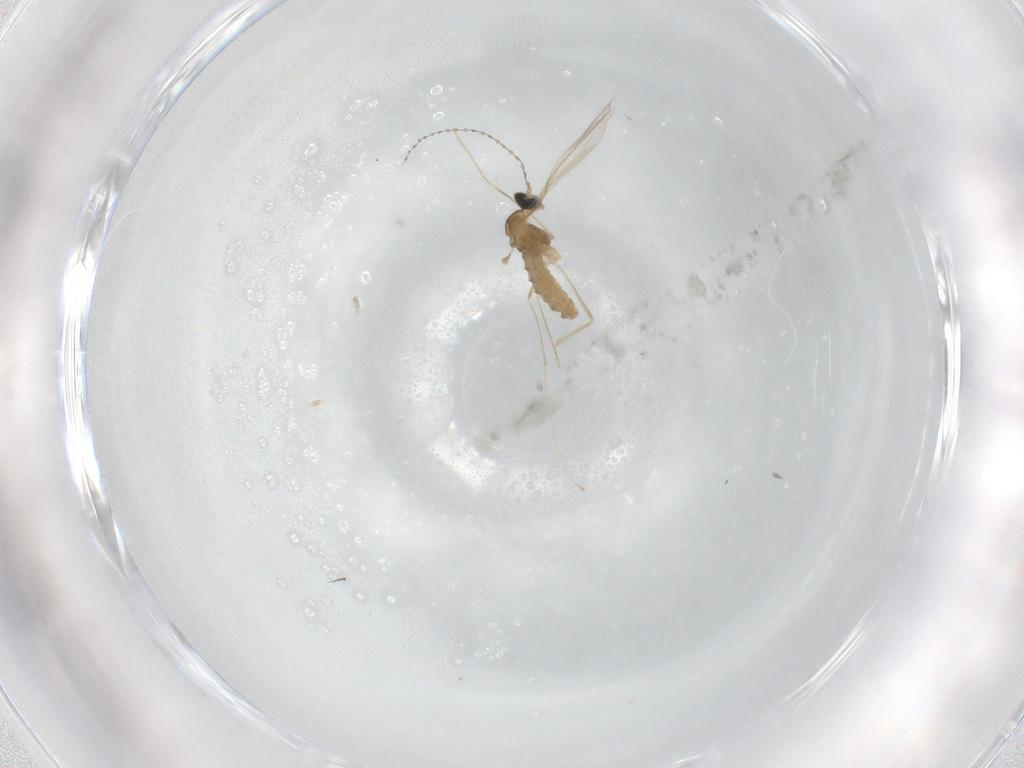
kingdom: Animalia
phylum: Arthropoda
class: Insecta
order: Diptera
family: Cecidomyiidae
